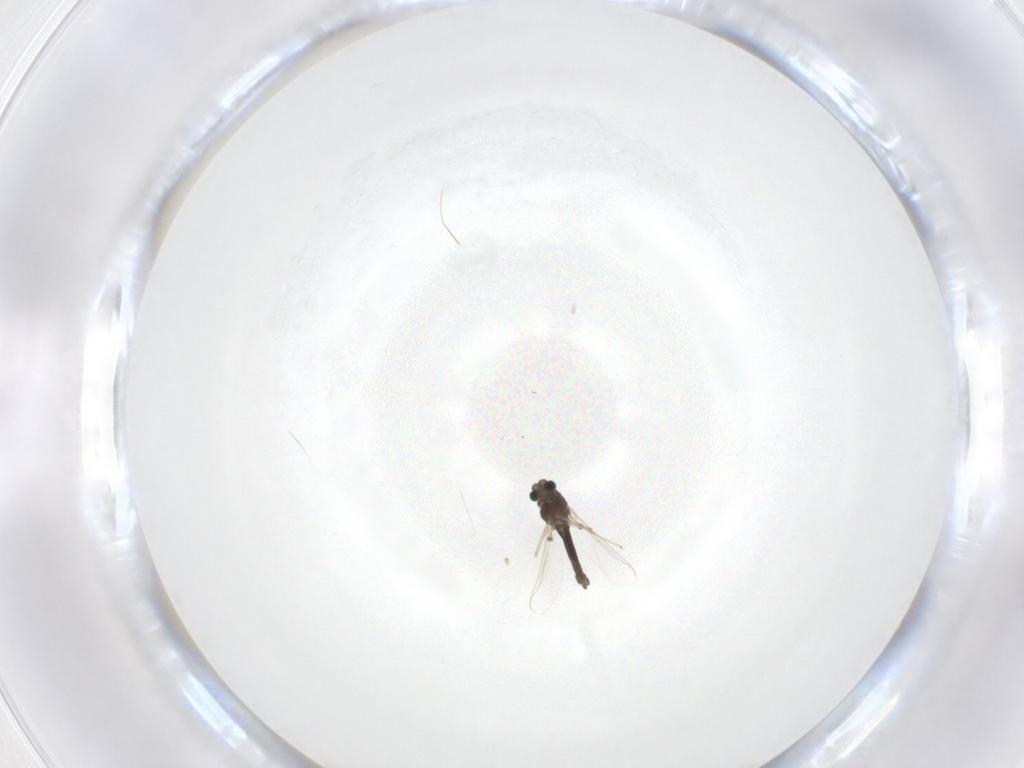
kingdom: Animalia
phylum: Arthropoda
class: Insecta
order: Diptera
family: Chironomidae
